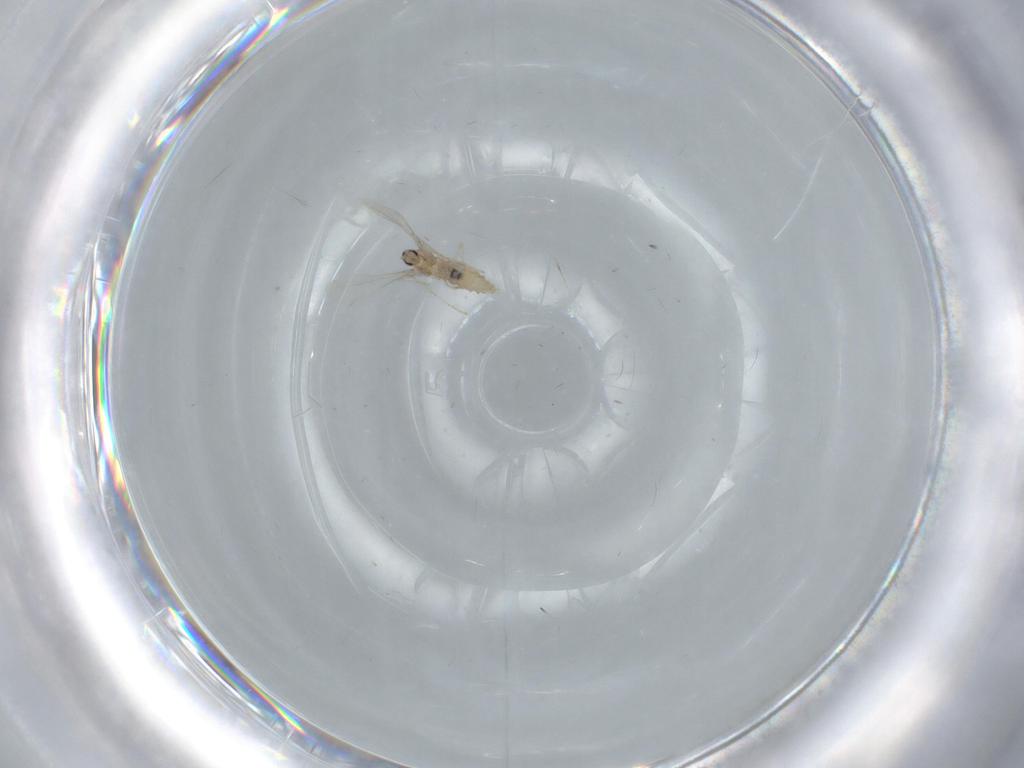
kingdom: Animalia
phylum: Arthropoda
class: Insecta
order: Diptera
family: Cecidomyiidae
